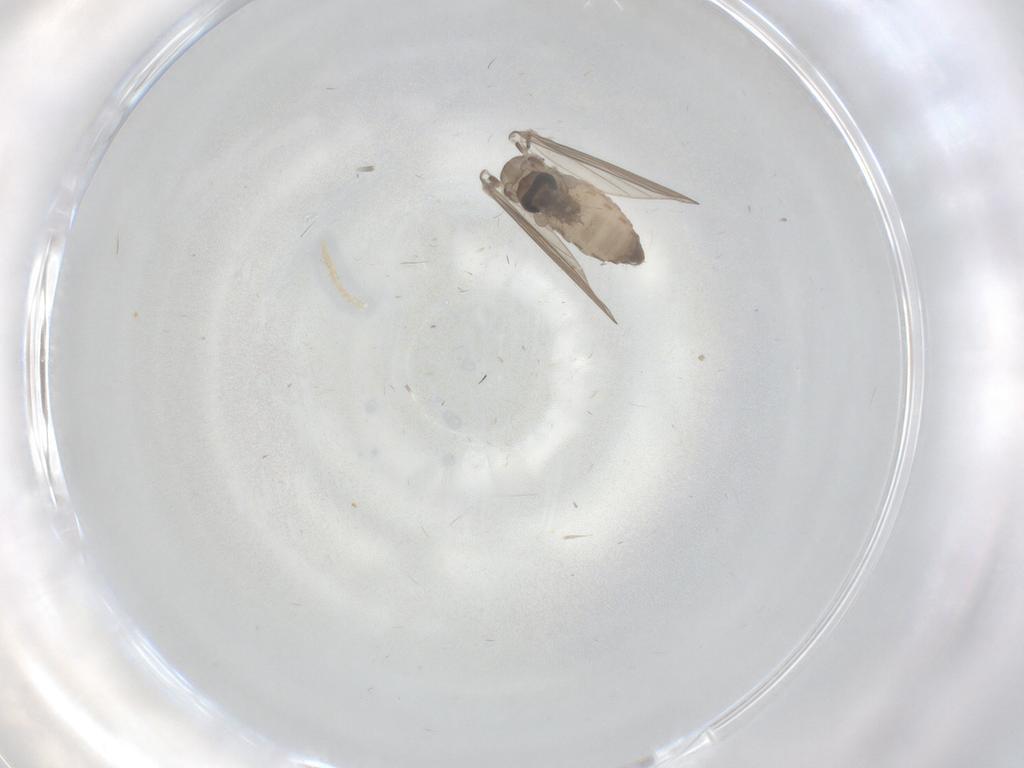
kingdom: Animalia
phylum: Arthropoda
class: Insecta
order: Diptera
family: Psychodidae
